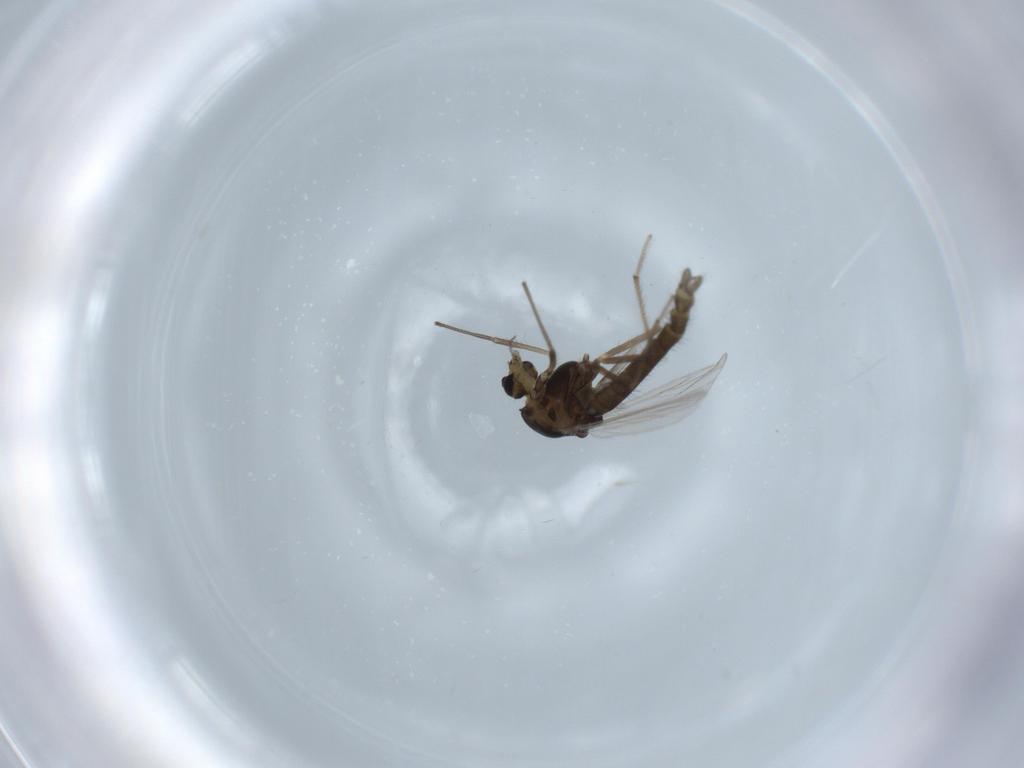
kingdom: Animalia
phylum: Arthropoda
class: Insecta
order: Diptera
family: Chironomidae
